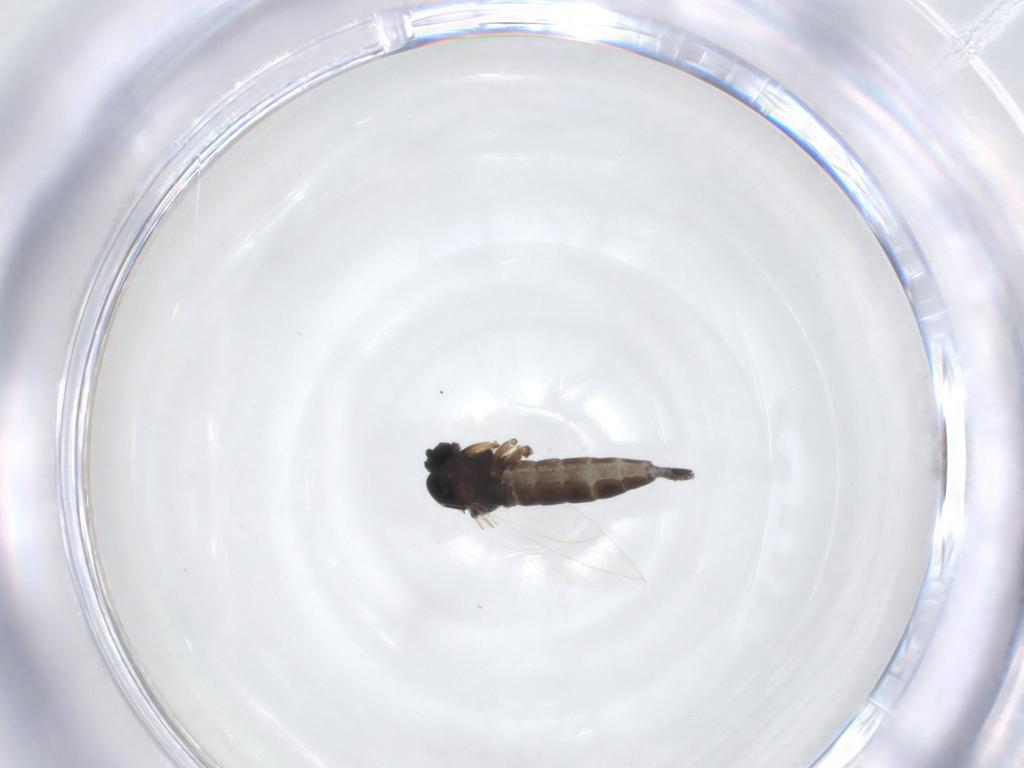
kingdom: Animalia
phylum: Arthropoda
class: Insecta
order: Diptera
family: Sciaridae
